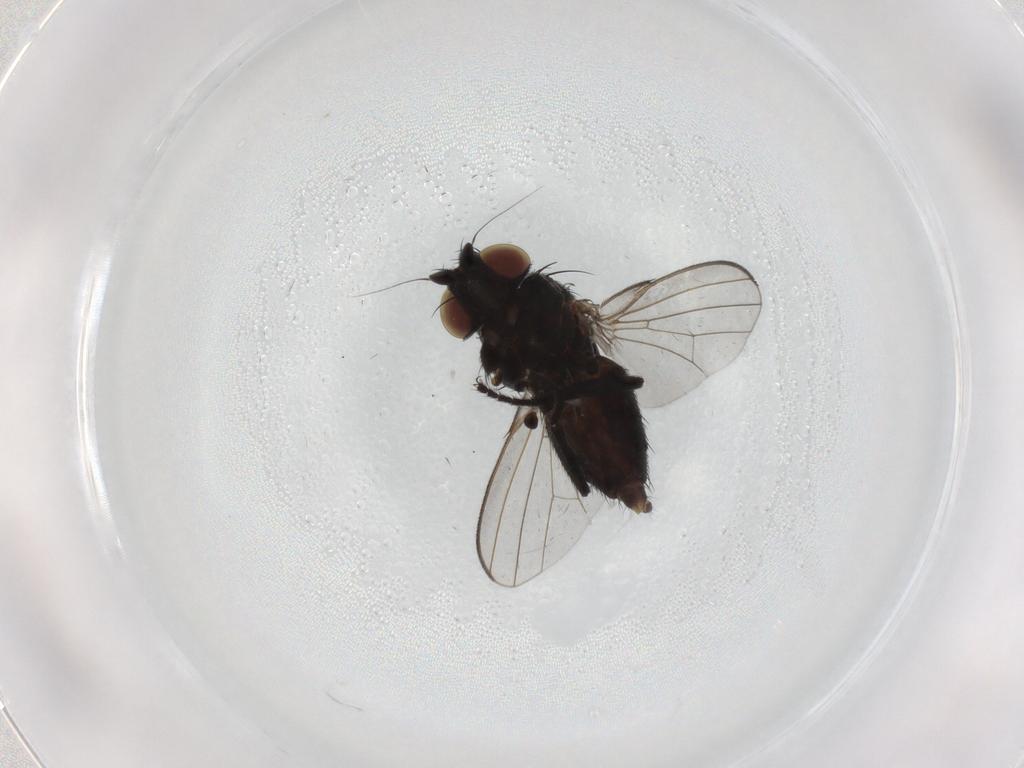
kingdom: Animalia
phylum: Arthropoda
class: Insecta
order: Diptera
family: Milichiidae
